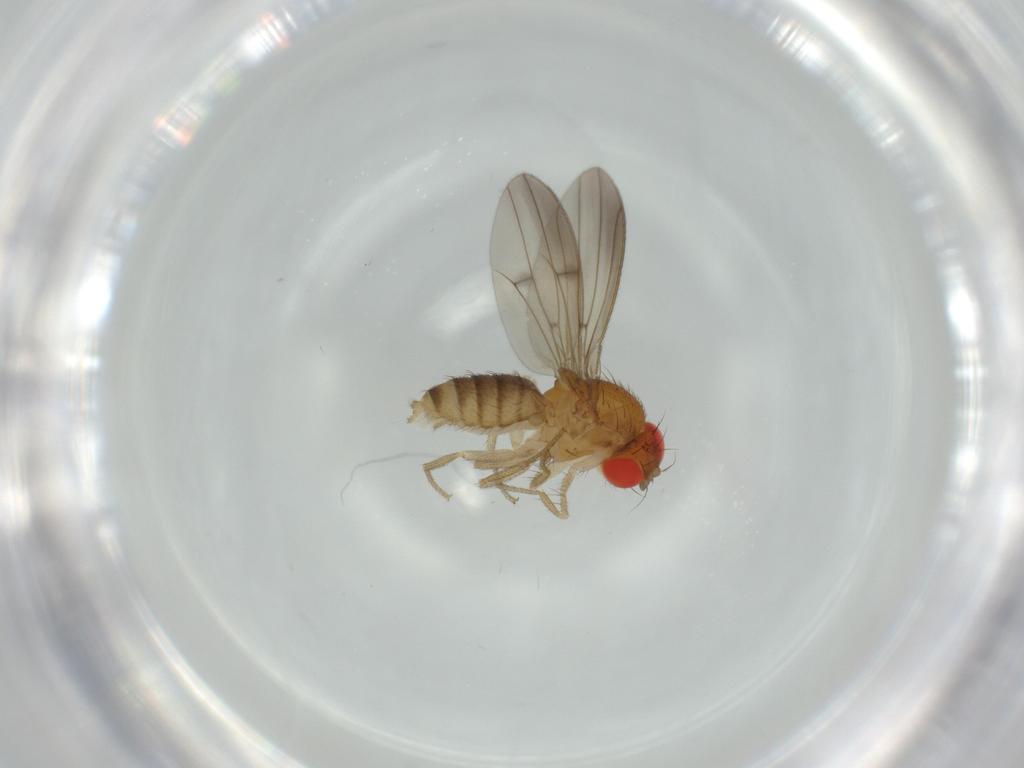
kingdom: Animalia
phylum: Arthropoda
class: Insecta
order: Diptera
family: Drosophilidae
